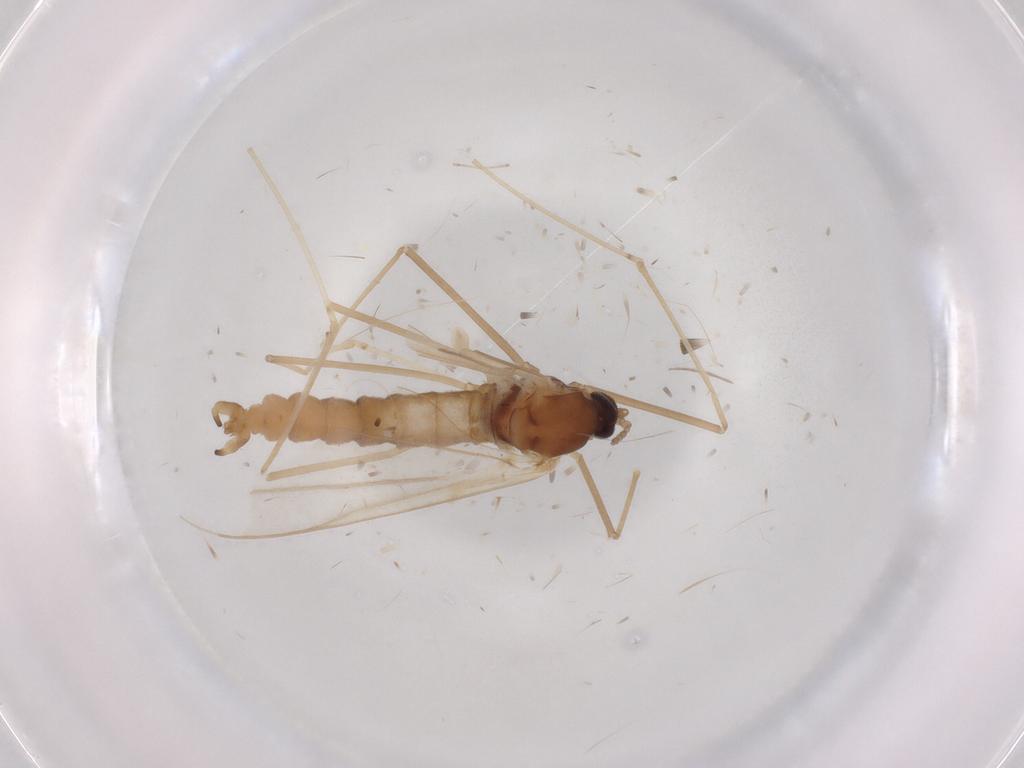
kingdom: Animalia
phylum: Arthropoda
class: Insecta
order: Diptera
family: Cecidomyiidae
